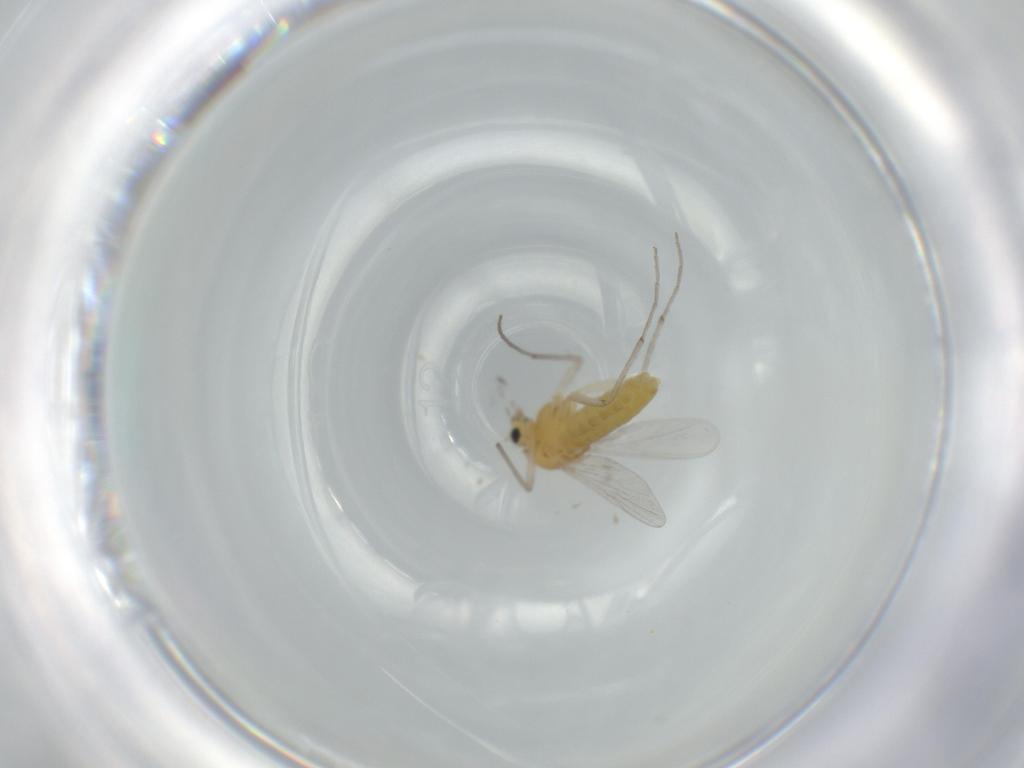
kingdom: Animalia
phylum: Arthropoda
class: Insecta
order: Diptera
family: Chironomidae
